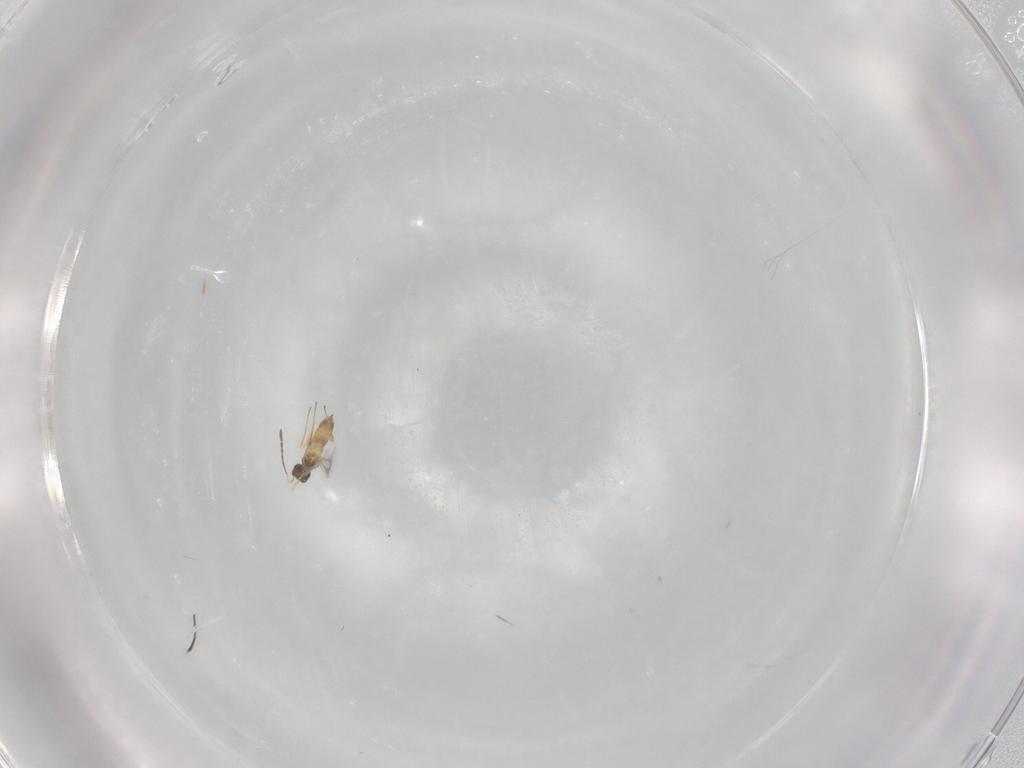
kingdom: Animalia
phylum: Arthropoda
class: Insecta
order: Hymenoptera
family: Mymaridae
